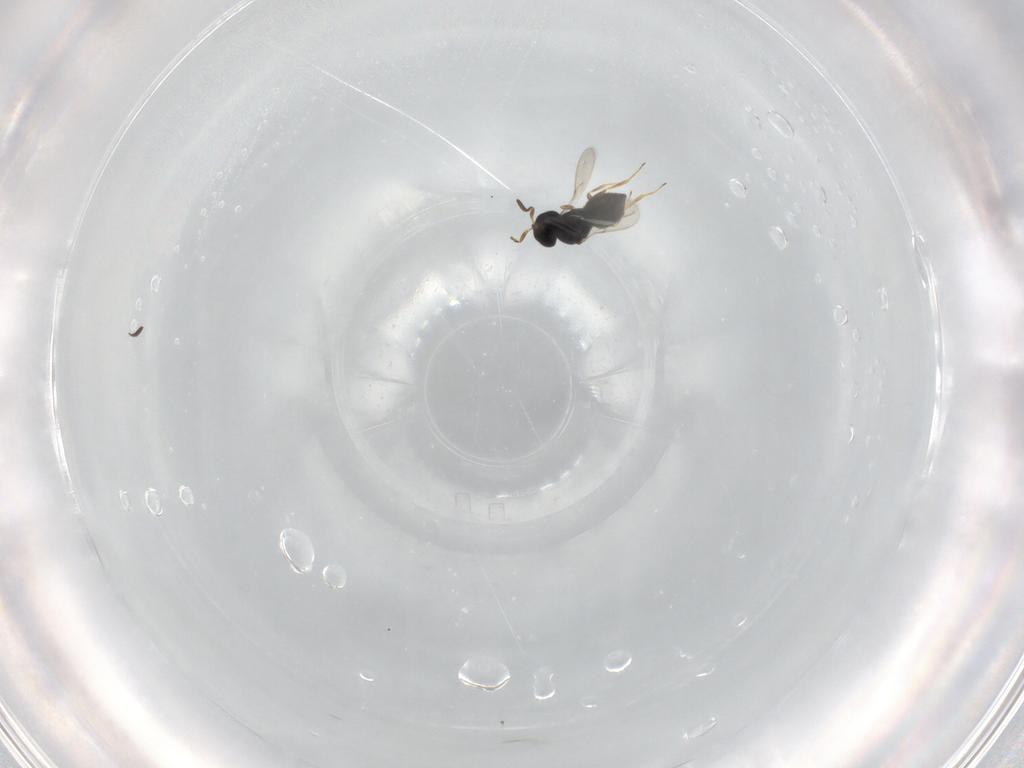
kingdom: Animalia
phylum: Arthropoda
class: Insecta
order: Hymenoptera
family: Scelionidae
